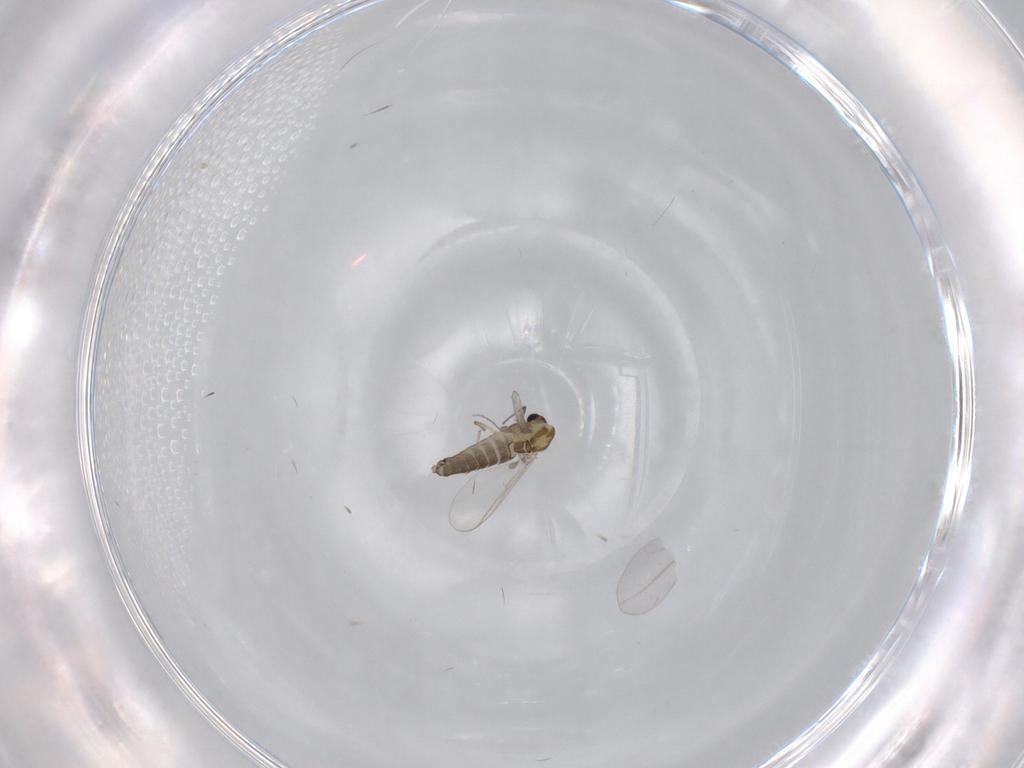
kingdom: Animalia
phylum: Arthropoda
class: Insecta
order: Diptera
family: Chironomidae
